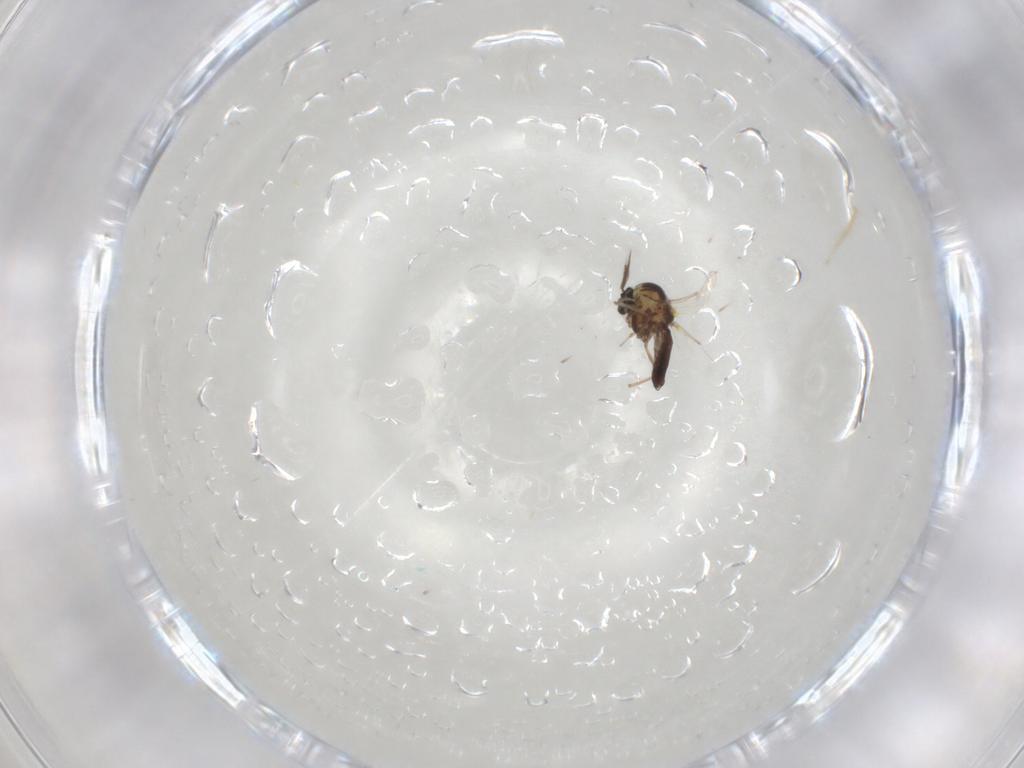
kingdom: Animalia
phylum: Arthropoda
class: Insecta
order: Diptera
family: Ceratopogonidae
